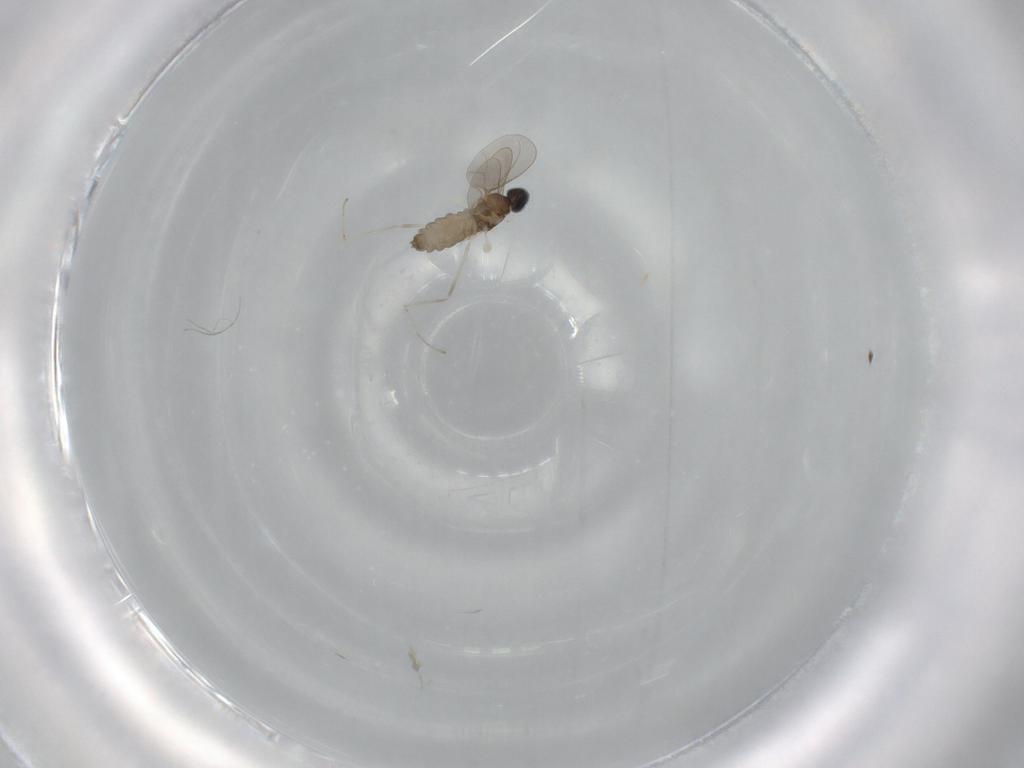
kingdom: Animalia
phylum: Arthropoda
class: Insecta
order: Diptera
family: Cecidomyiidae
